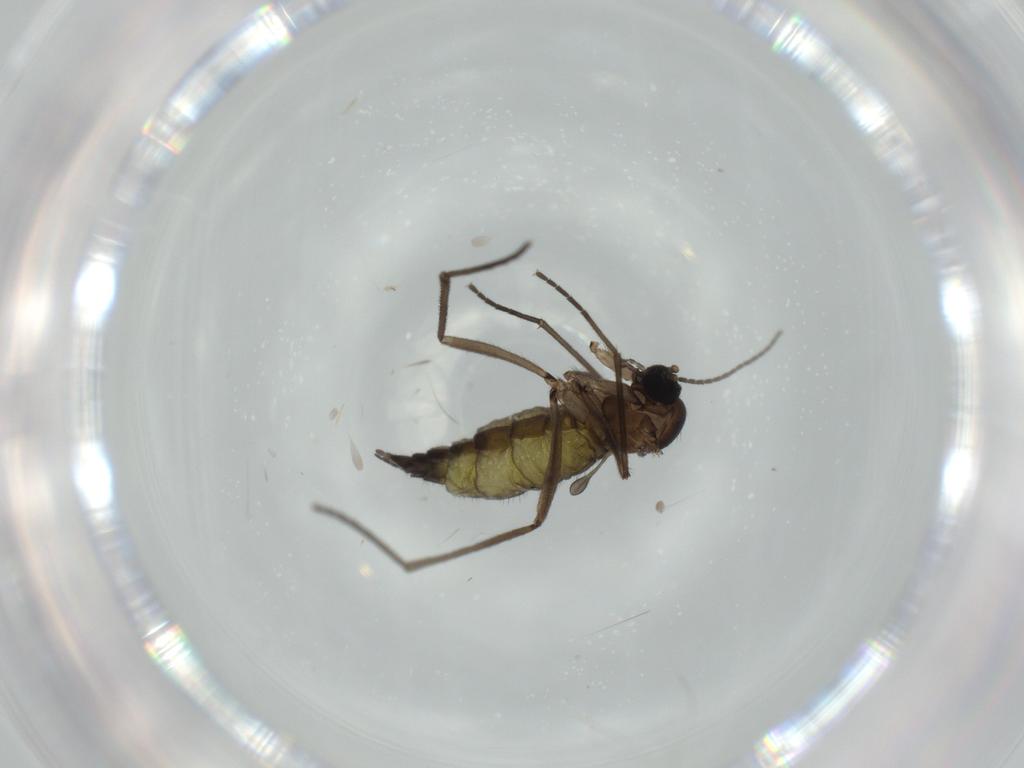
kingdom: Animalia
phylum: Arthropoda
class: Insecta
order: Diptera
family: Sciaridae
